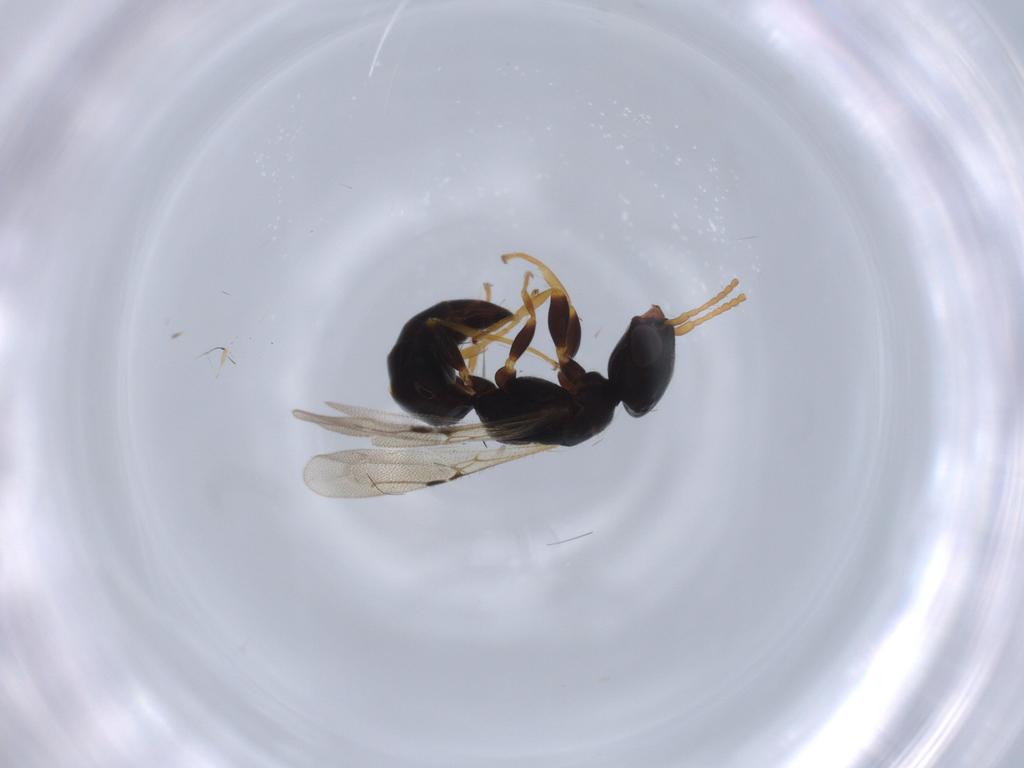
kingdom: Animalia
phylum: Arthropoda
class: Insecta
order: Hymenoptera
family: Bethylidae
